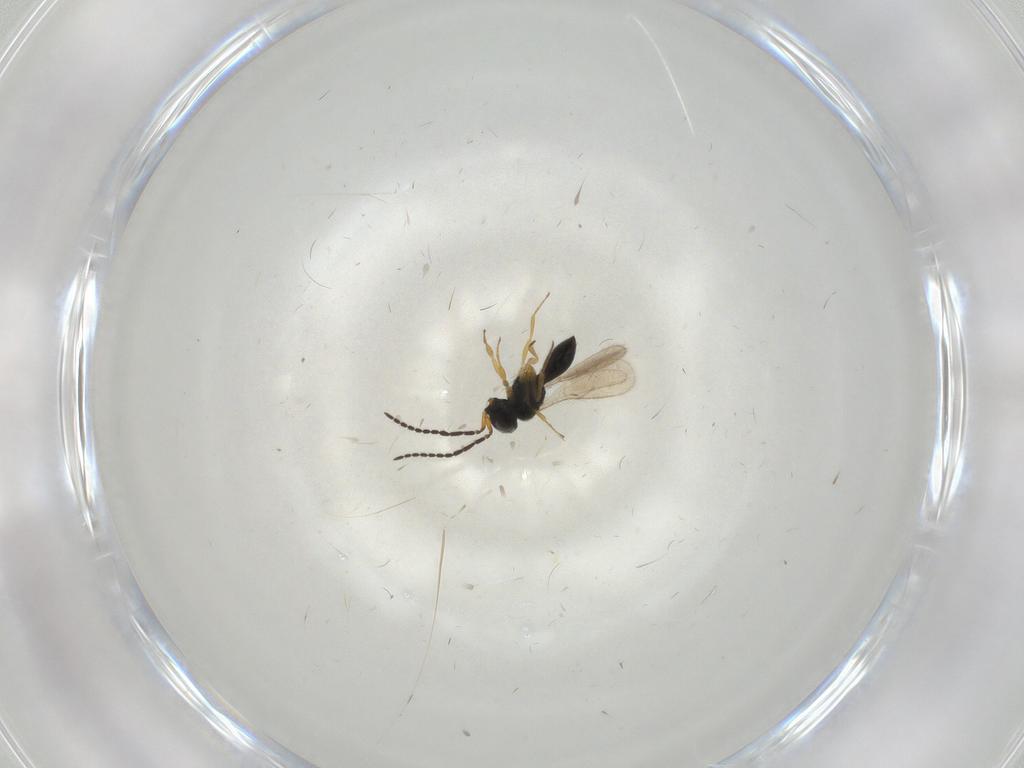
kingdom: Animalia
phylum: Arthropoda
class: Insecta
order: Hymenoptera
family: Scelionidae
